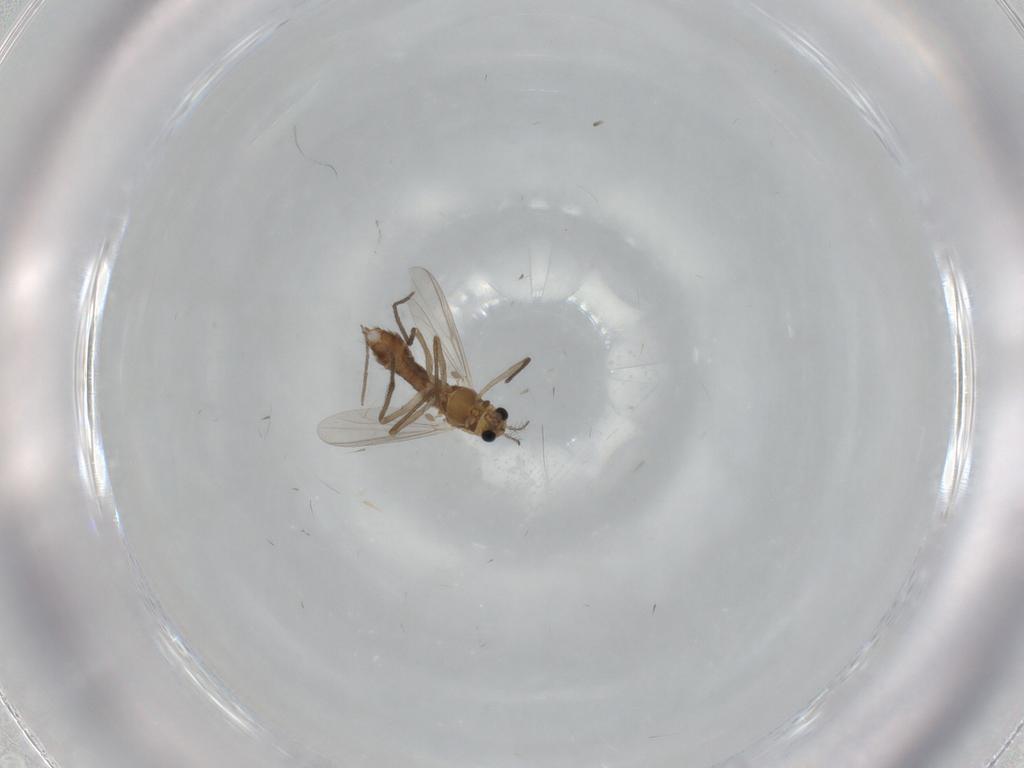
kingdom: Animalia
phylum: Arthropoda
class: Insecta
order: Diptera
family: Chironomidae
